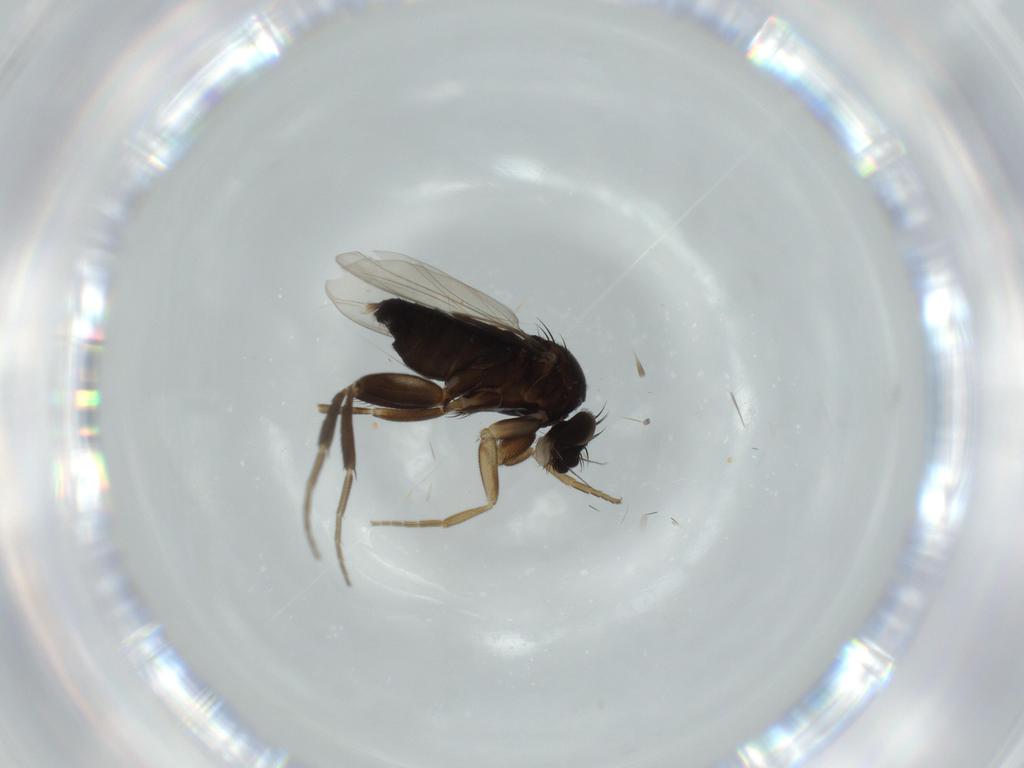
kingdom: Animalia
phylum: Arthropoda
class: Insecta
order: Diptera
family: Phoridae
